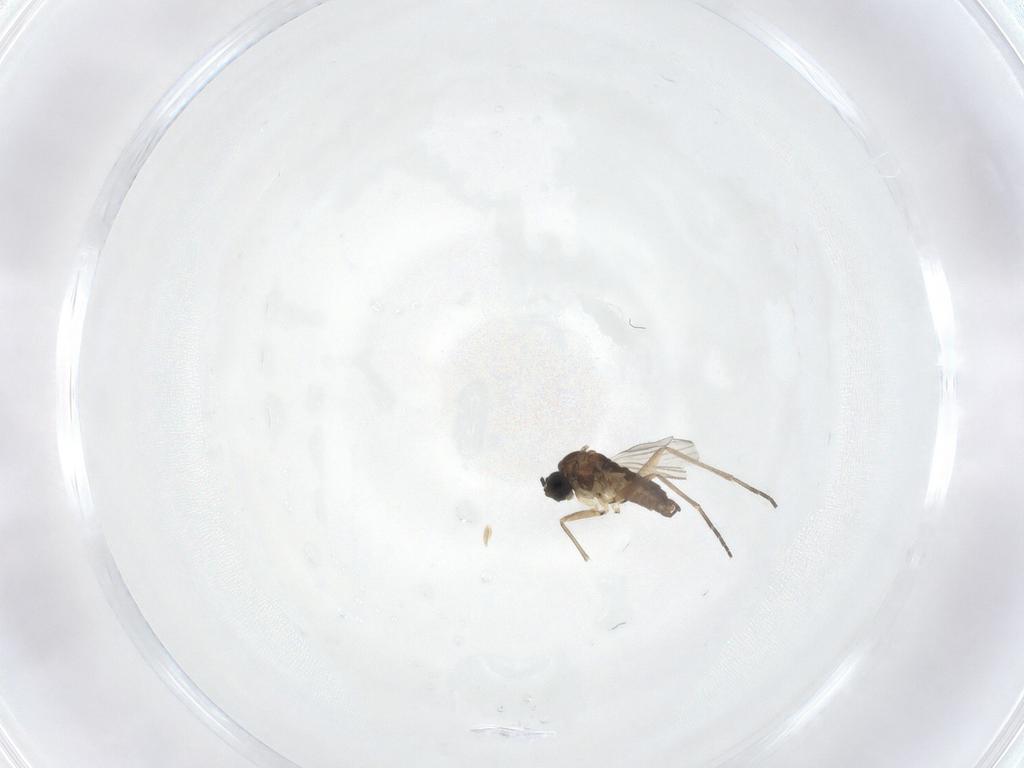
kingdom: Animalia
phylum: Arthropoda
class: Insecta
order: Diptera
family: Sciaridae
